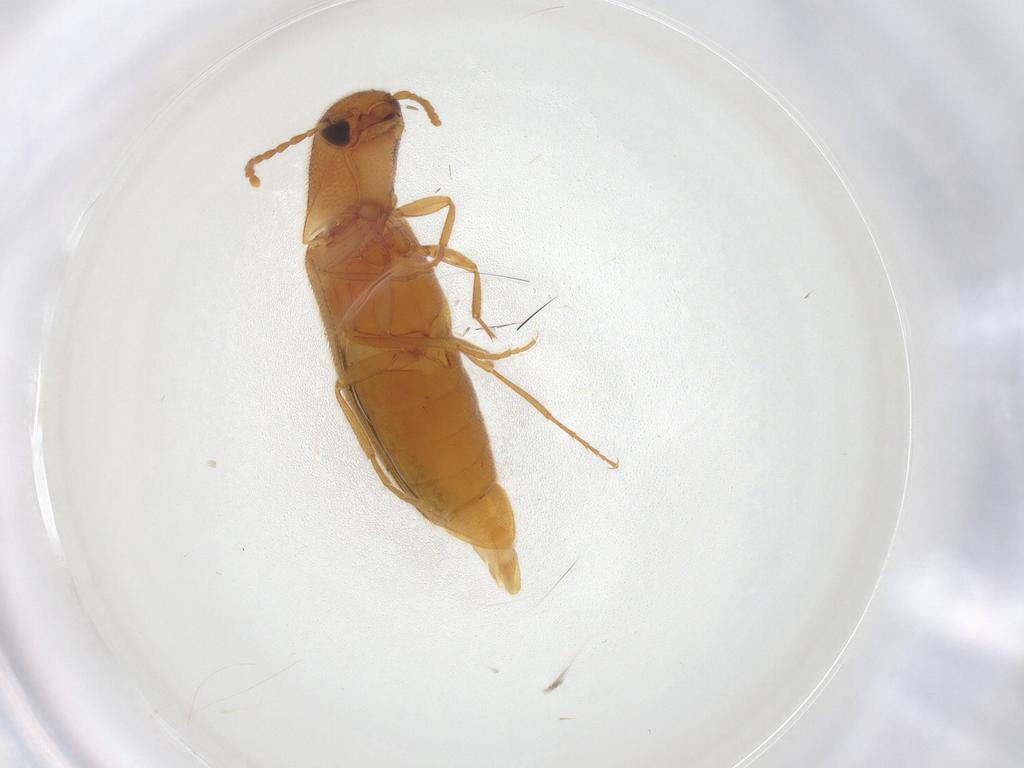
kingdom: Animalia
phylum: Arthropoda
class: Insecta
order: Coleoptera
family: Elateridae
